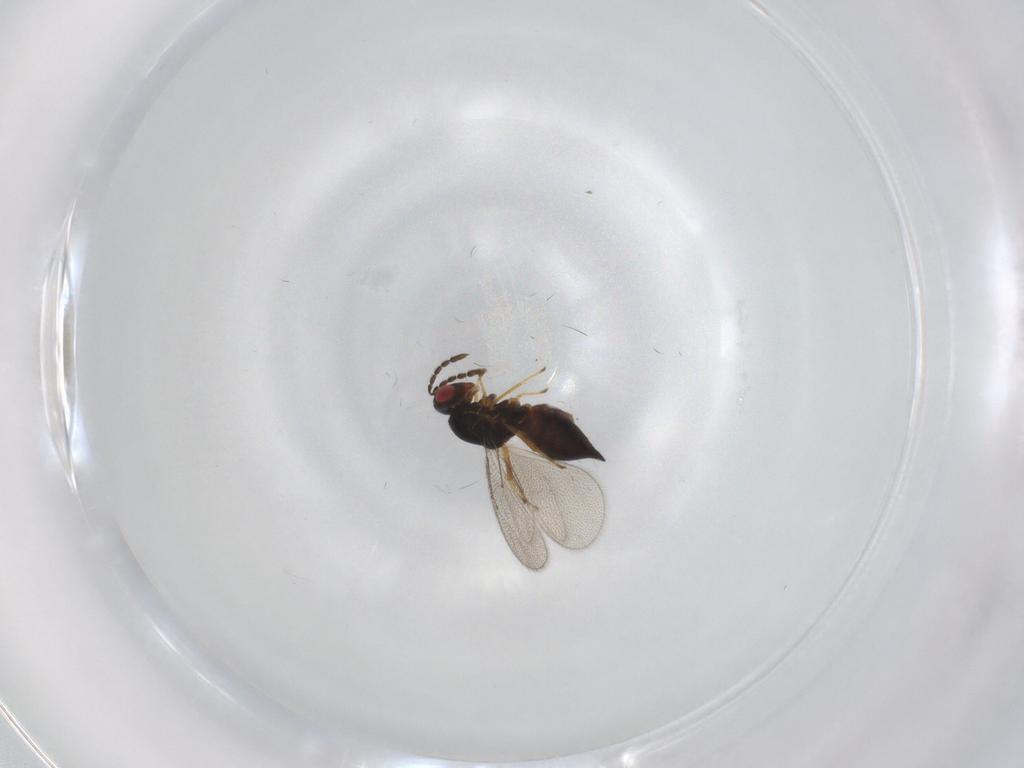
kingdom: Animalia
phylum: Arthropoda
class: Insecta
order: Hymenoptera
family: Eulophidae
